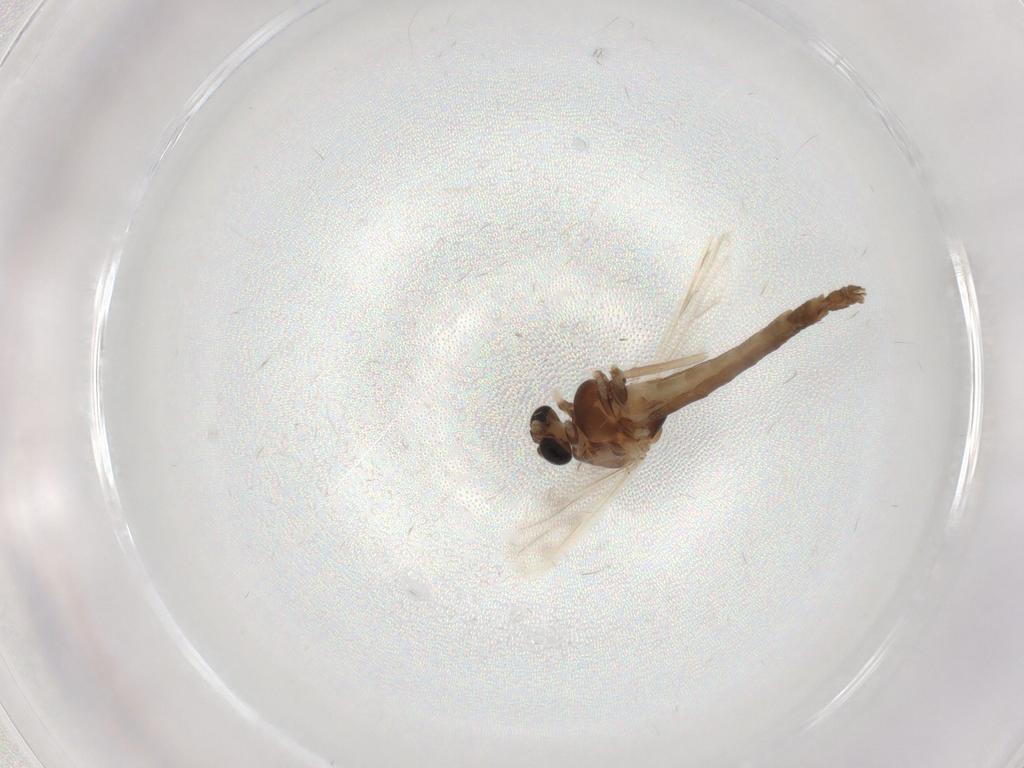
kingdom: Animalia
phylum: Arthropoda
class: Insecta
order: Diptera
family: Chironomidae
